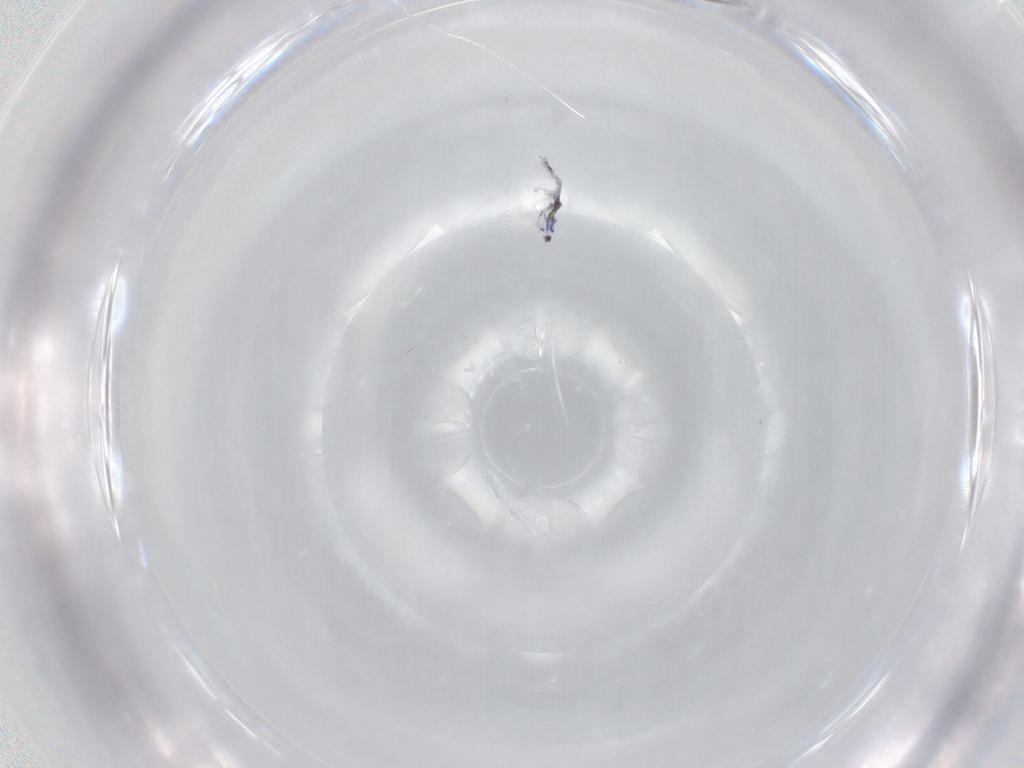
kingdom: Animalia
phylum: Arthropoda
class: Collembola
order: Entomobryomorpha
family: Entomobryidae
